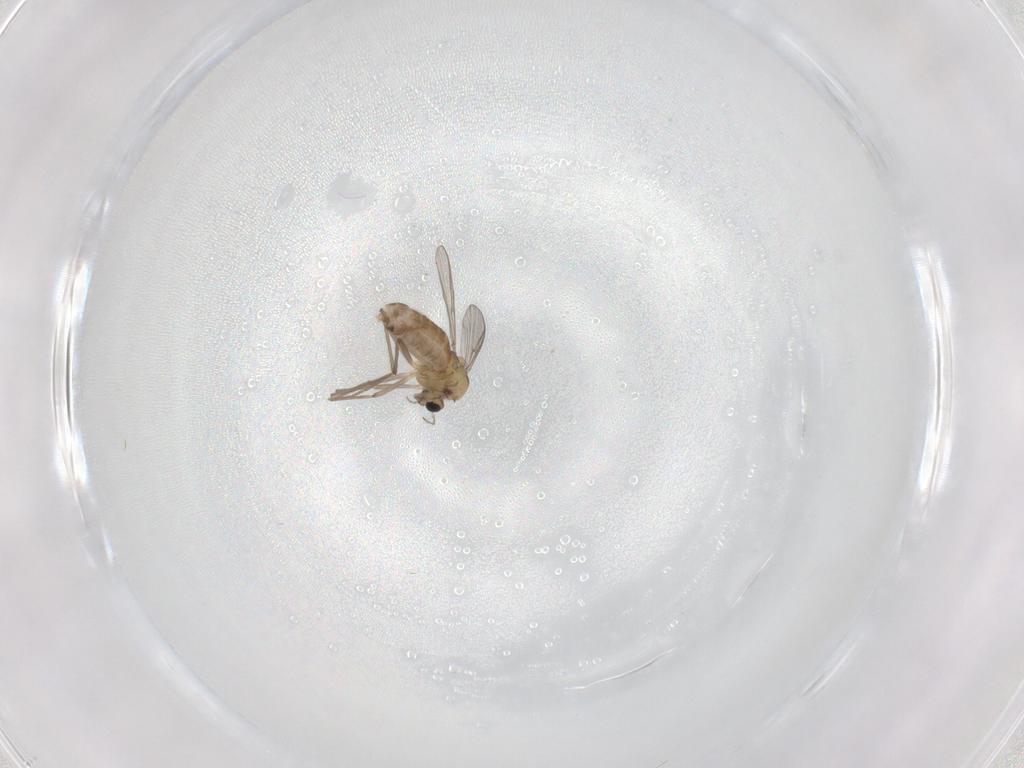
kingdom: Animalia
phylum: Arthropoda
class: Insecta
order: Diptera
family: Chironomidae
